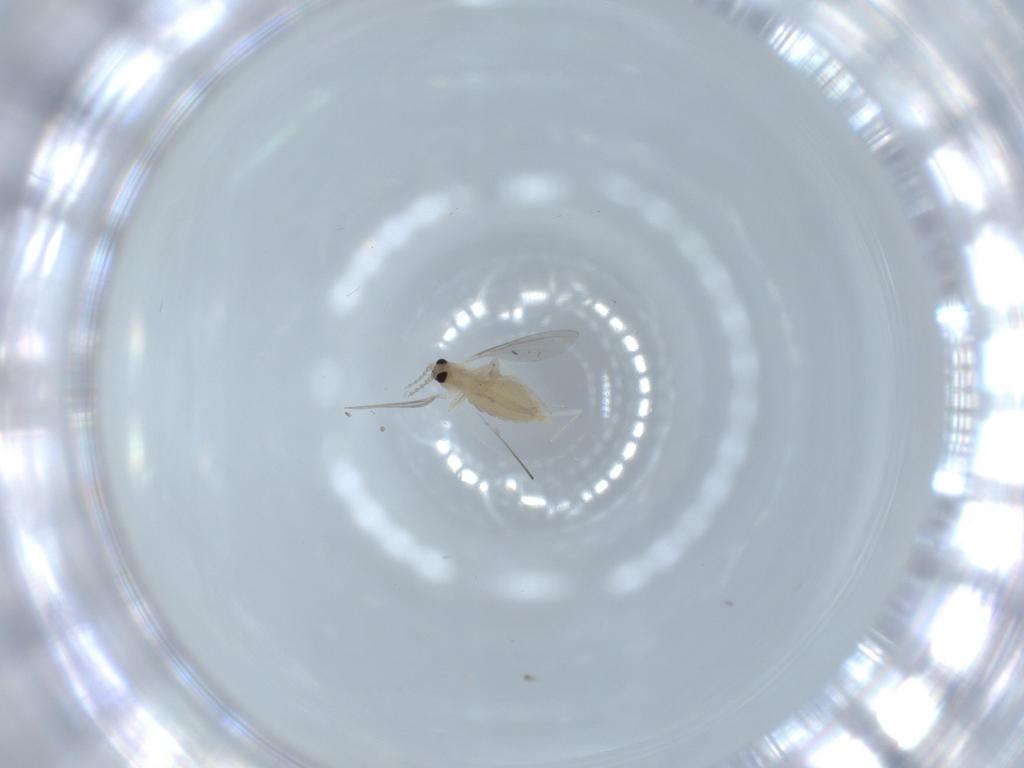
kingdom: Animalia
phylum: Arthropoda
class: Insecta
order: Diptera
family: Cecidomyiidae
